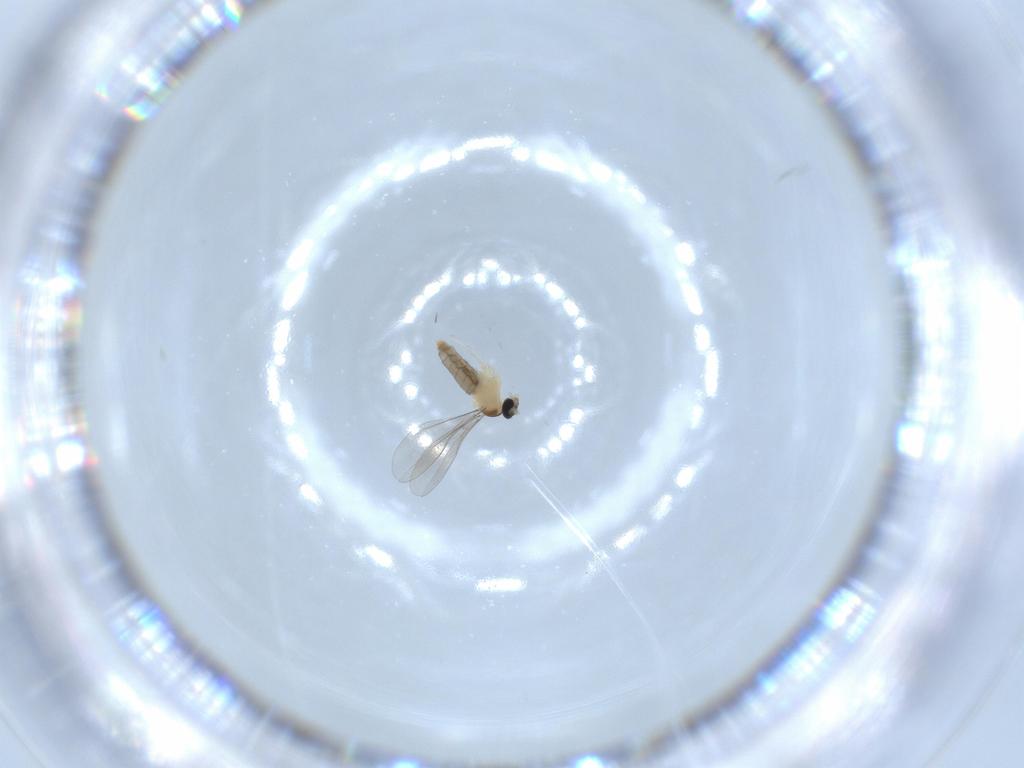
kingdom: Animalia
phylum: Arthropoda
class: Insecta
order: Diptera
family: Cecidomyiidae
